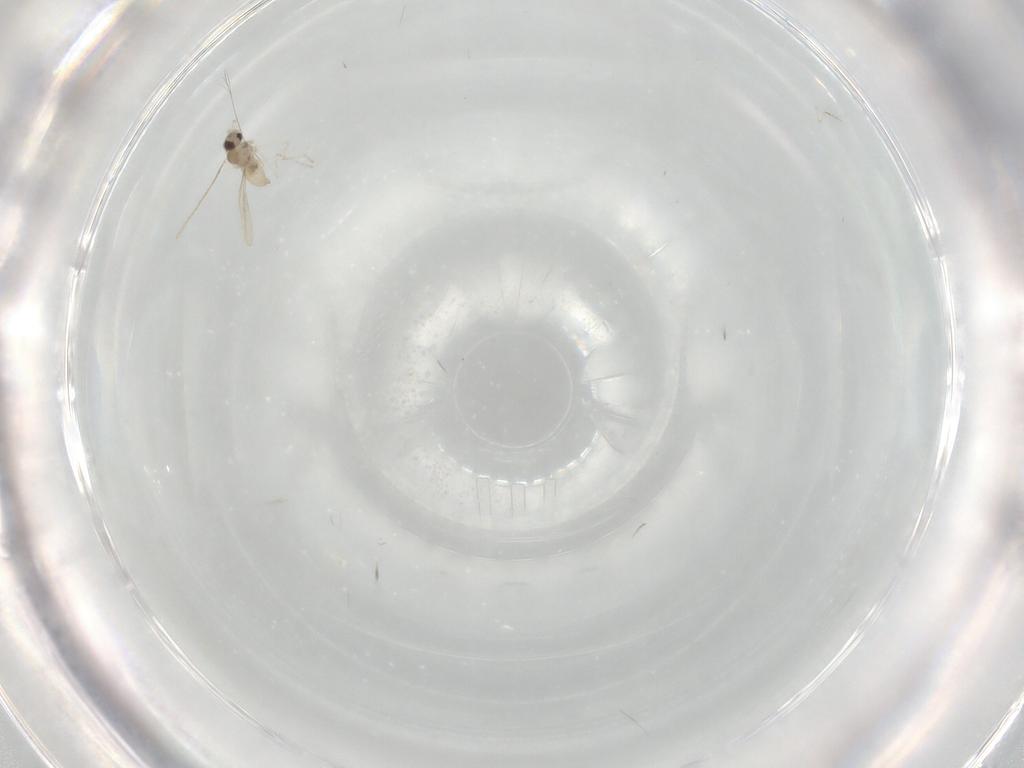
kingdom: Animalia
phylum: Arthropoda
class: Insecta
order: Diptera
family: Cecidomyiidae
